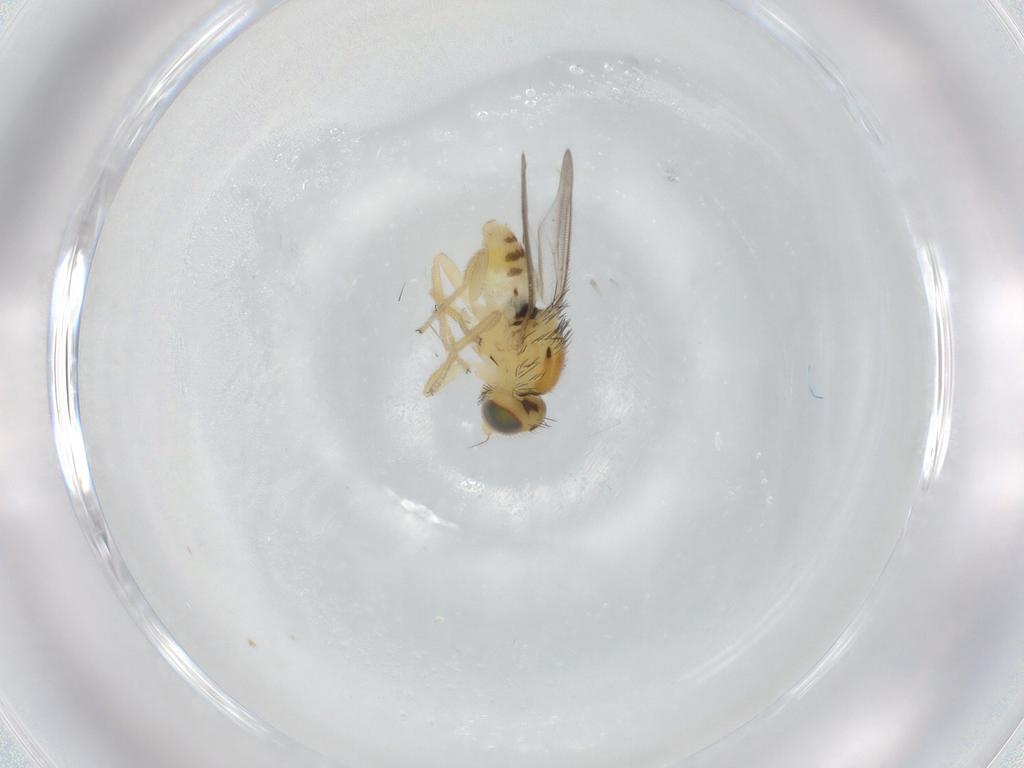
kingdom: Animalia
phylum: Arthropoda
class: Insecta
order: Diptera
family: Chloropidae
